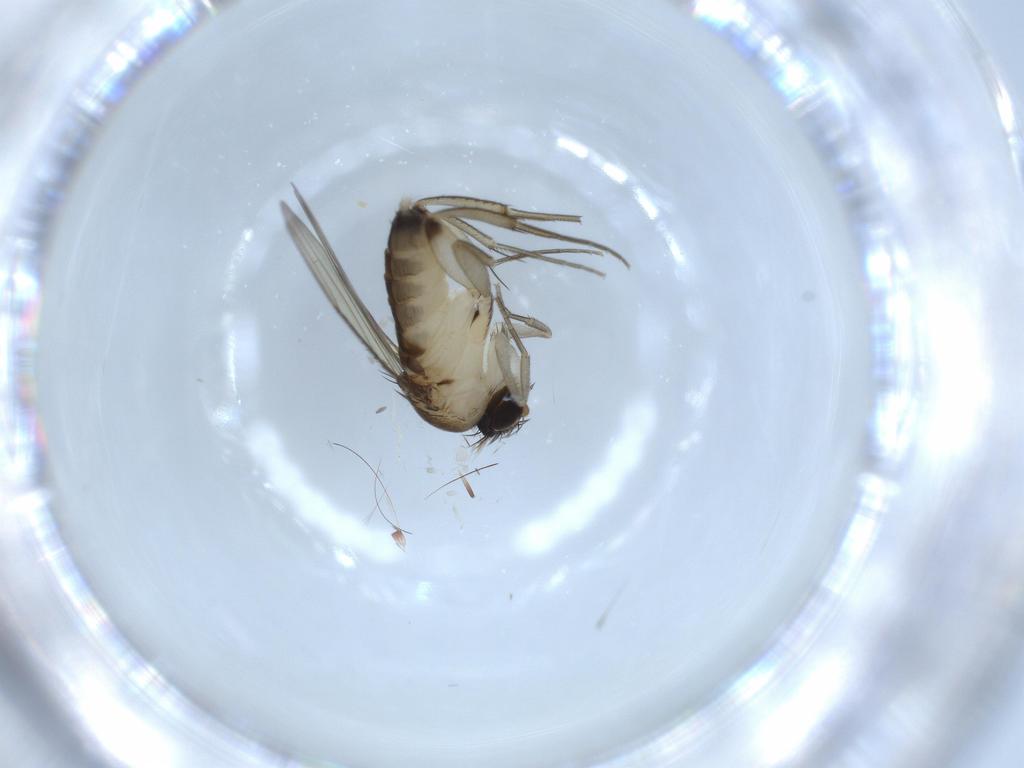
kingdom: Animalia
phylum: Arthropoda
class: Insecta
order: Diptera
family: Phoridae
